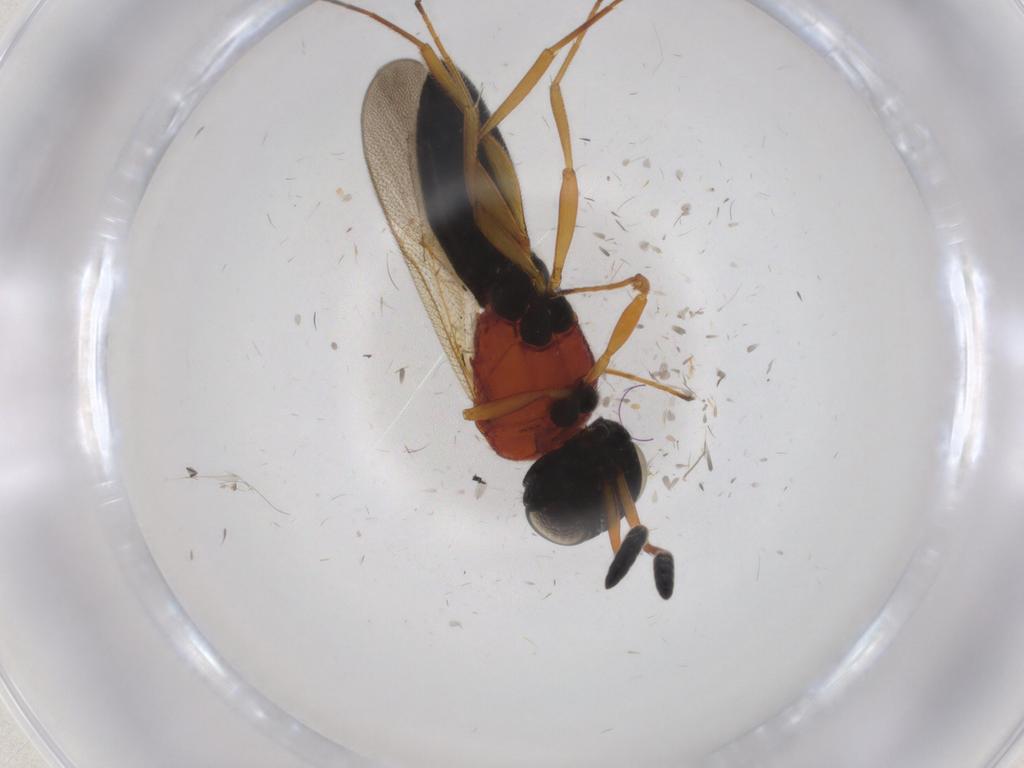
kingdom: Animalia
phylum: Arthropoda
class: Insecta
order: Hymenoptera
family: Scelionidae
